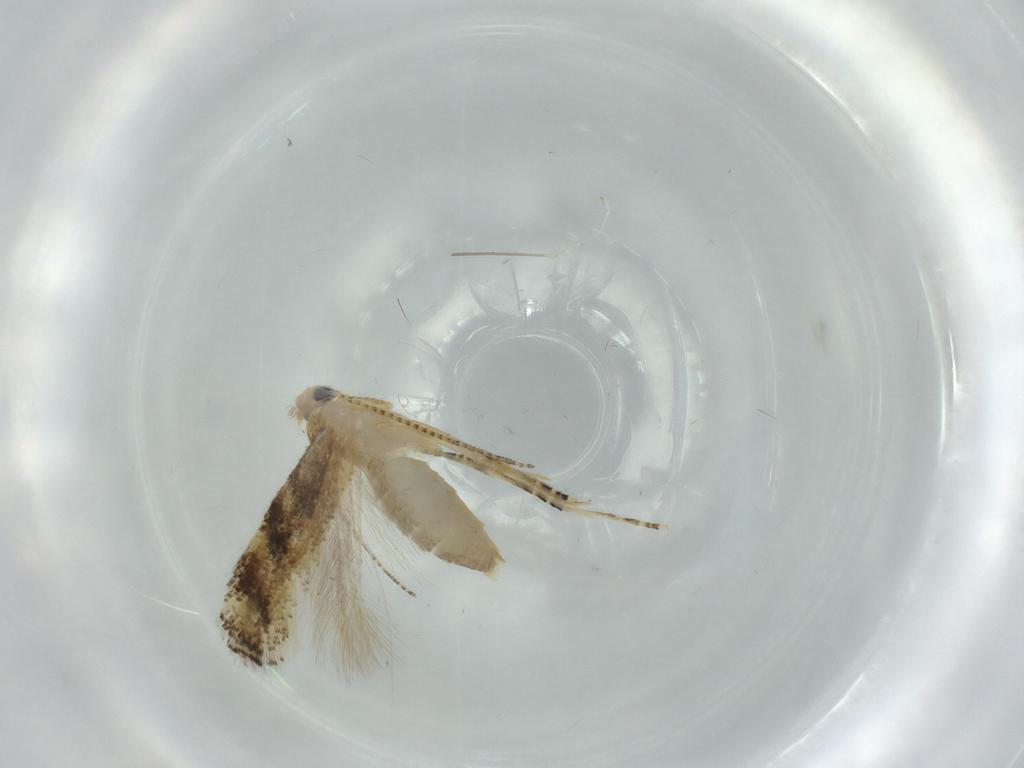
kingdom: Animalia
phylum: Arthropoda
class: Insecta
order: Lepidoptera
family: Bucculatricidae
